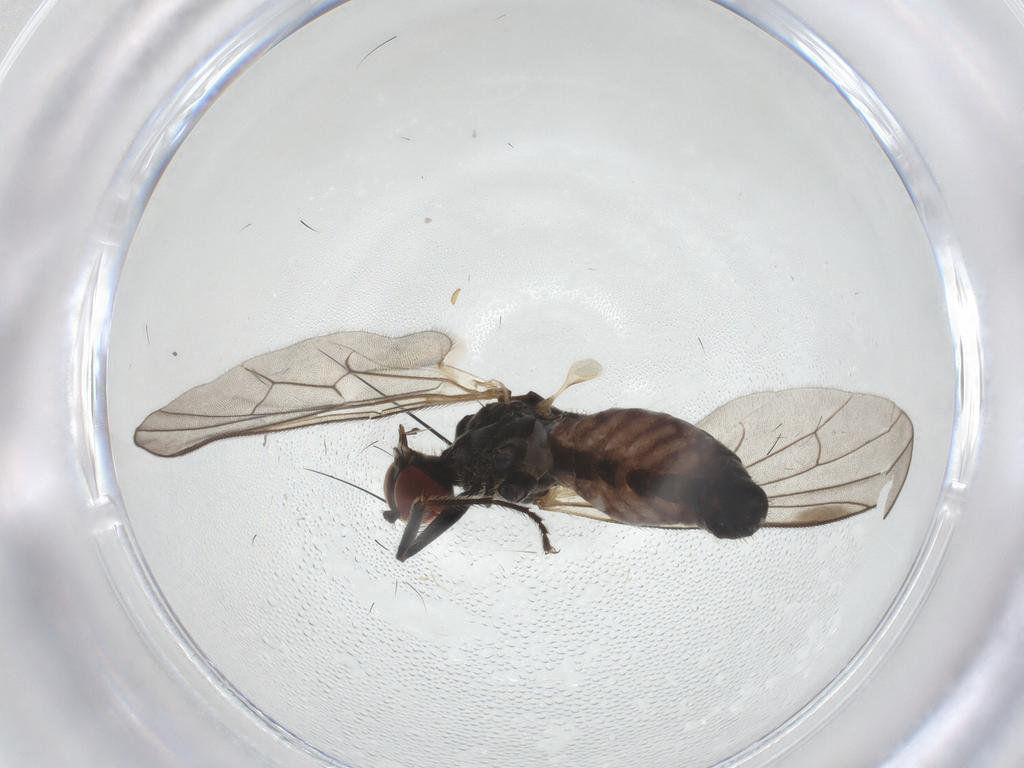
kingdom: Animalia
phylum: Arthropoda
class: Insecta
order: Diptera
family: Hybotidae
